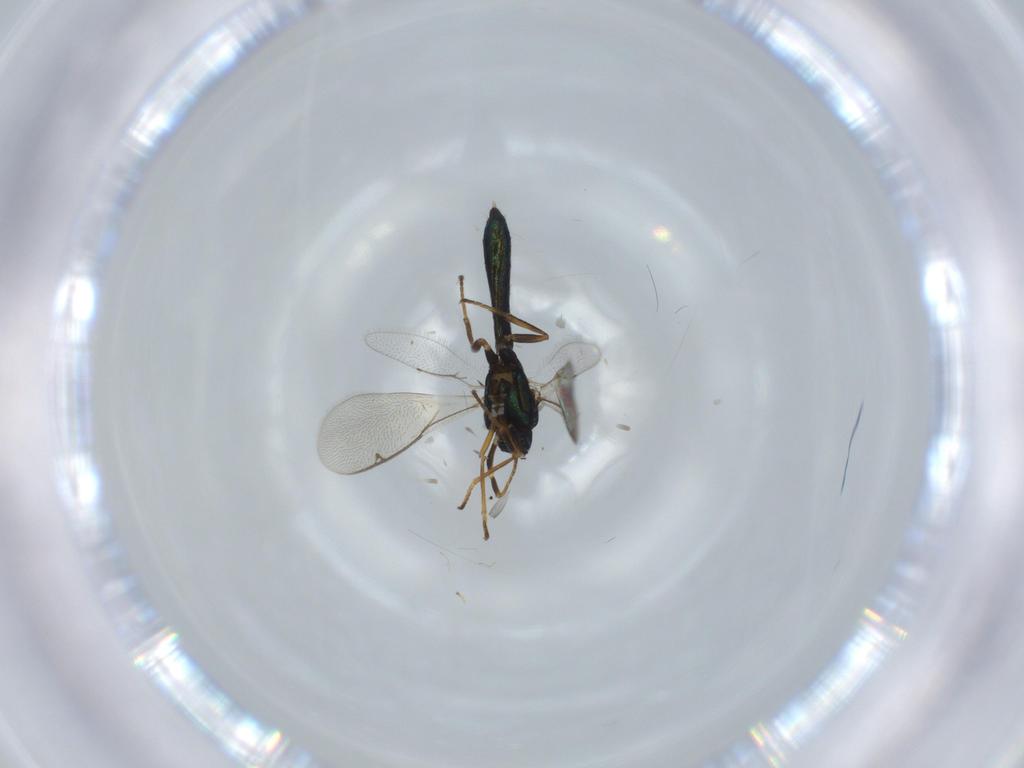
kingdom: Animalia
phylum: Arthropoda
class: Insecta
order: Hymenoptera
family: Eupelmidae
